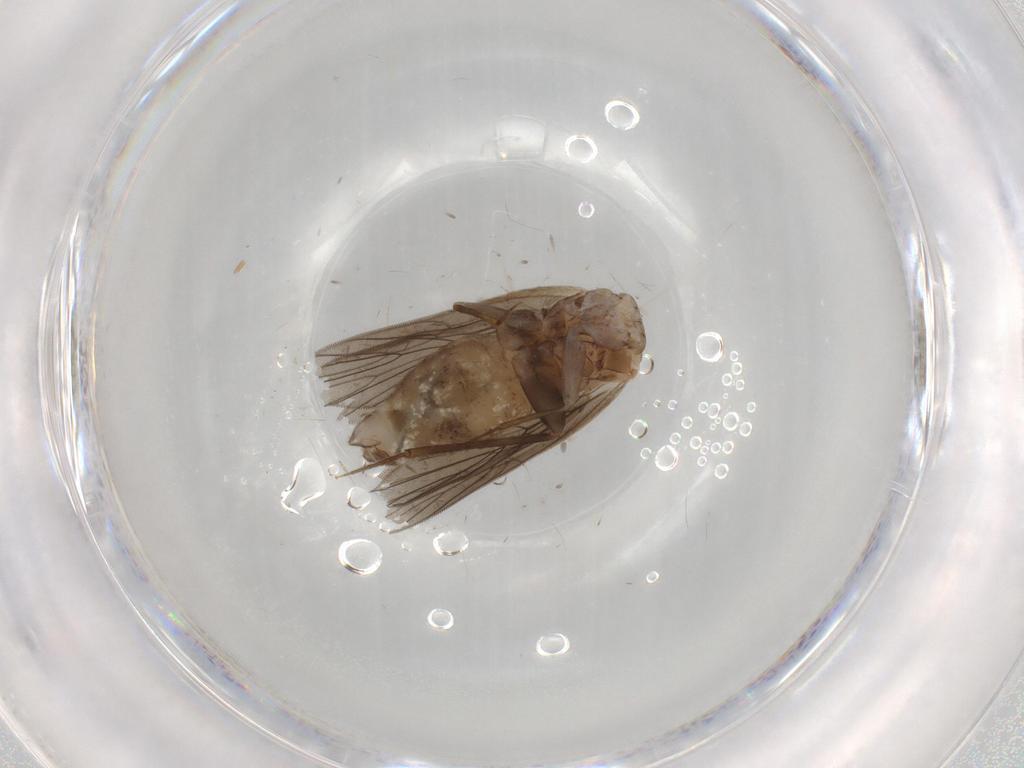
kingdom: Animalia
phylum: Arthropoda
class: Insecta
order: Psocodea
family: Lepidopsocidae
